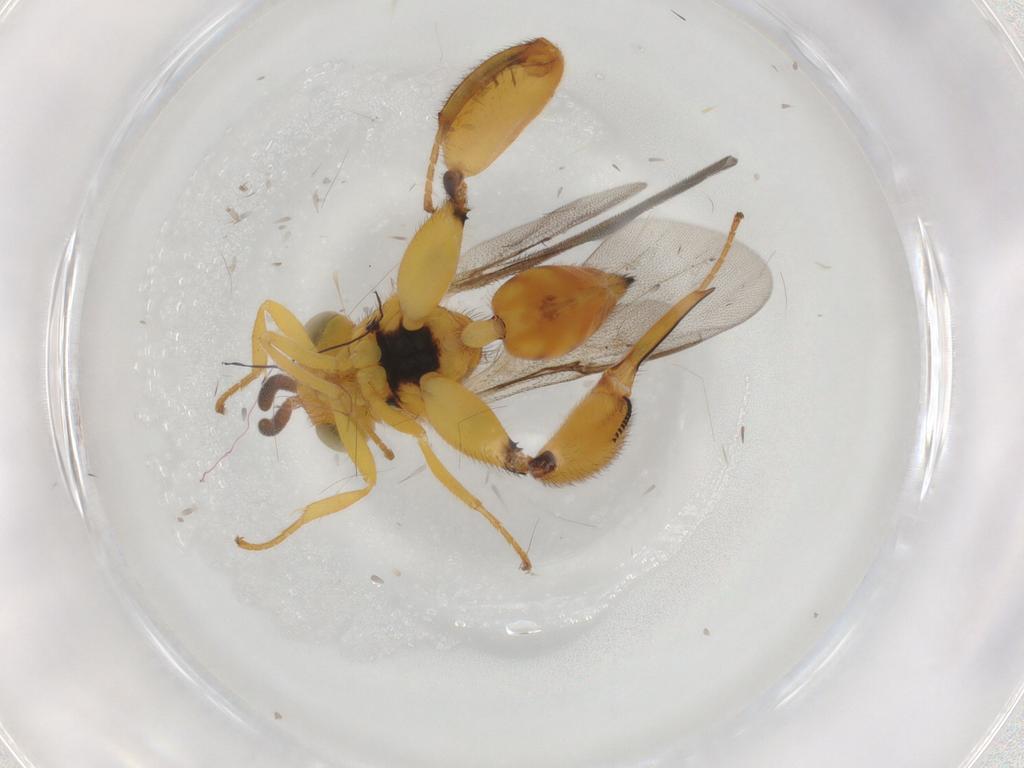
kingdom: Animalia
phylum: Arthropoda
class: Insecta
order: Hymenoptera
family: Chalcididae
